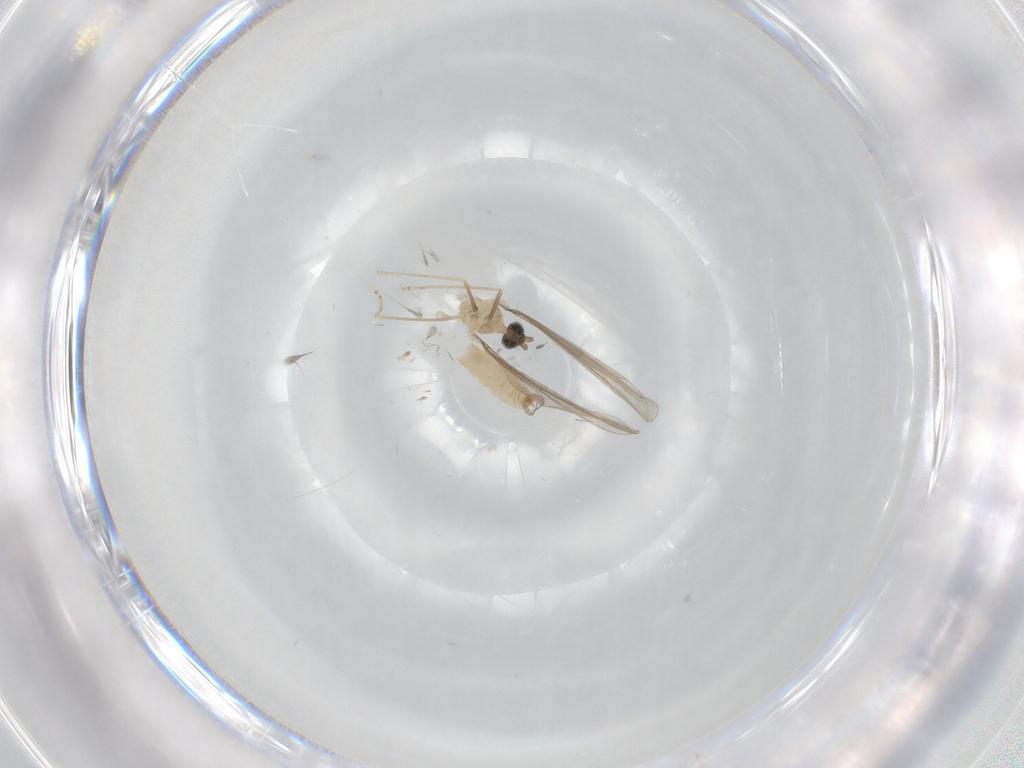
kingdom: Animalia
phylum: Arthropoda
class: Insecta
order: Diptera
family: Cecidomyiidae
